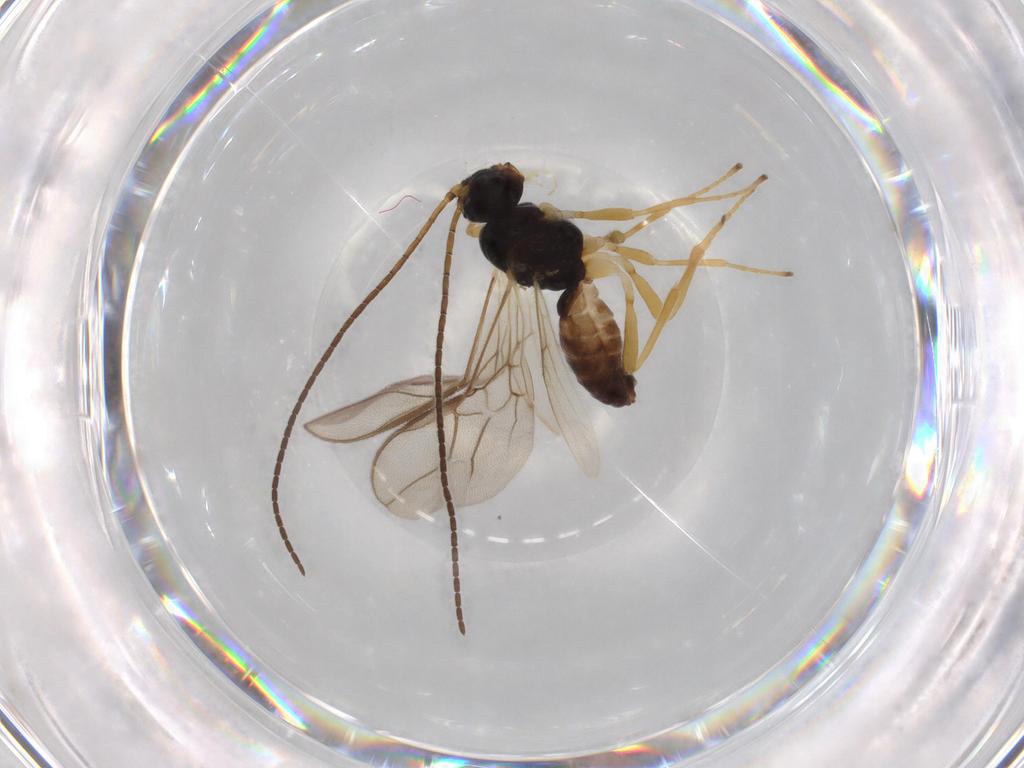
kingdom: Animalia
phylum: Arthropoda
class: Insecta
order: Hymenoptera
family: Braconidae
